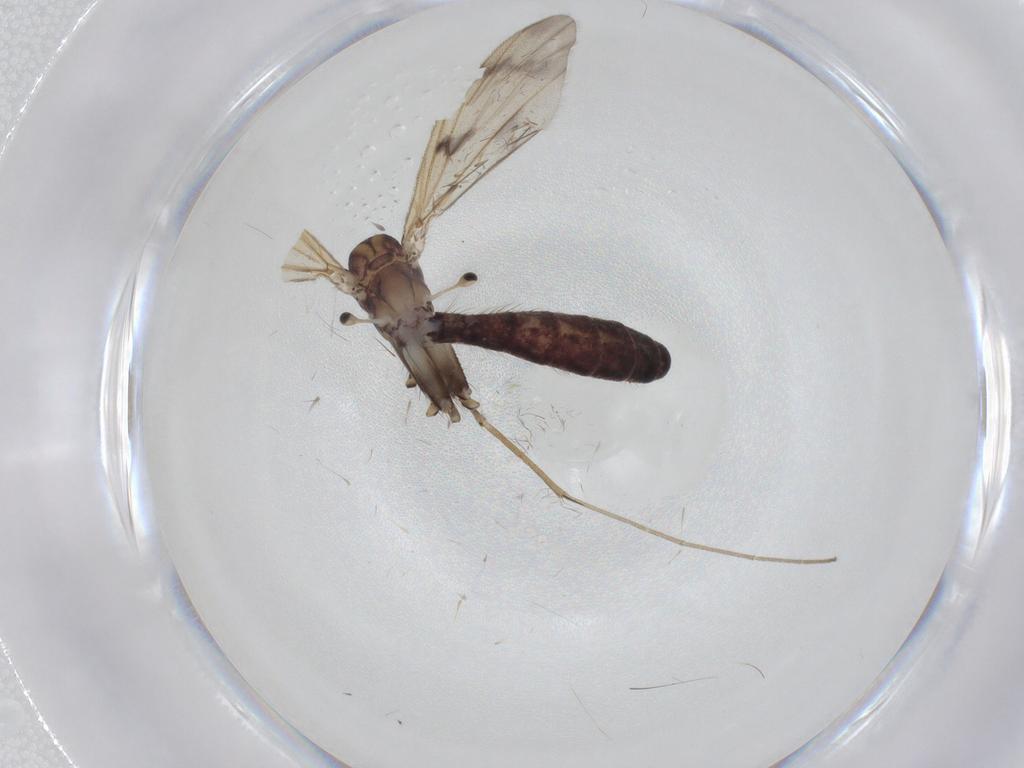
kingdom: Animalia
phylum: Arthropoda
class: Insecta
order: Diptera
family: Mycetophilidae
